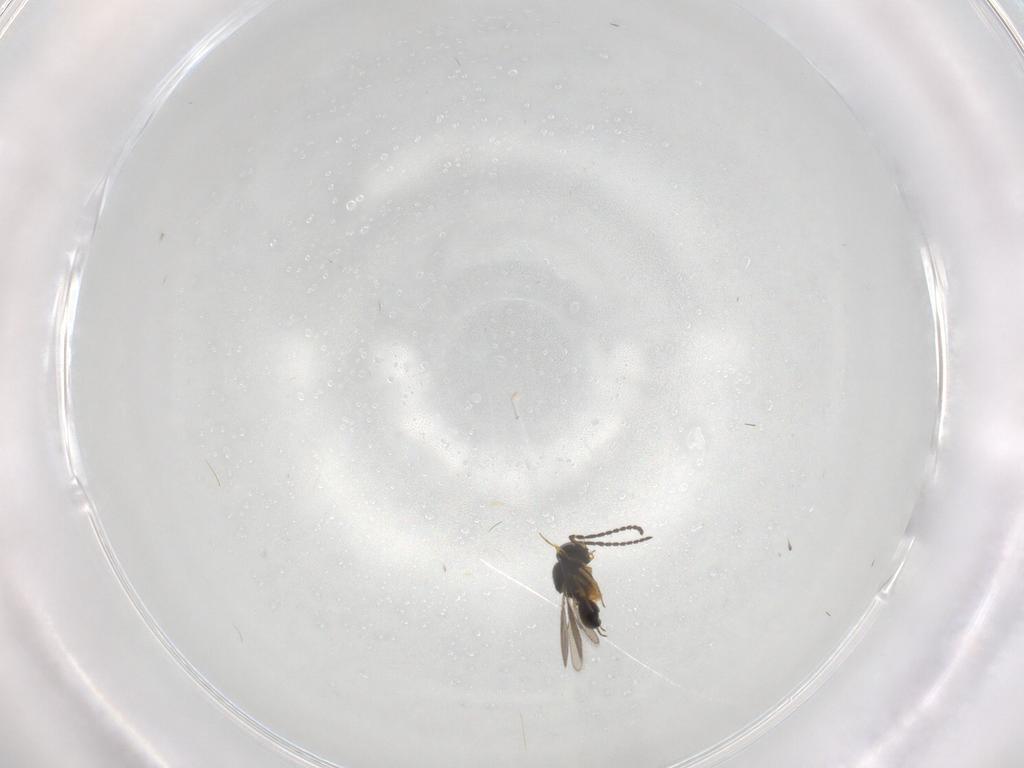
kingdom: Animalia
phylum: Arthropoda
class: Insecta
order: Hymenoptera
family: Scelionidae
